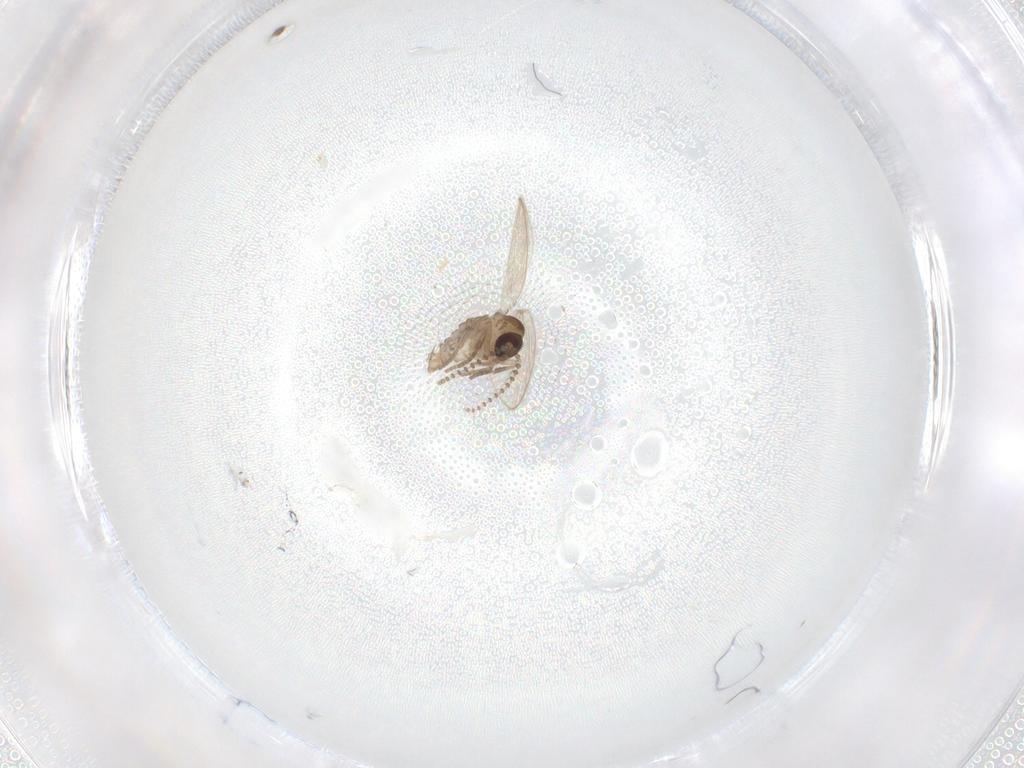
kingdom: Animalia
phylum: Arthropoda
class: Insecta
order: Diptera
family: Psychodidae
